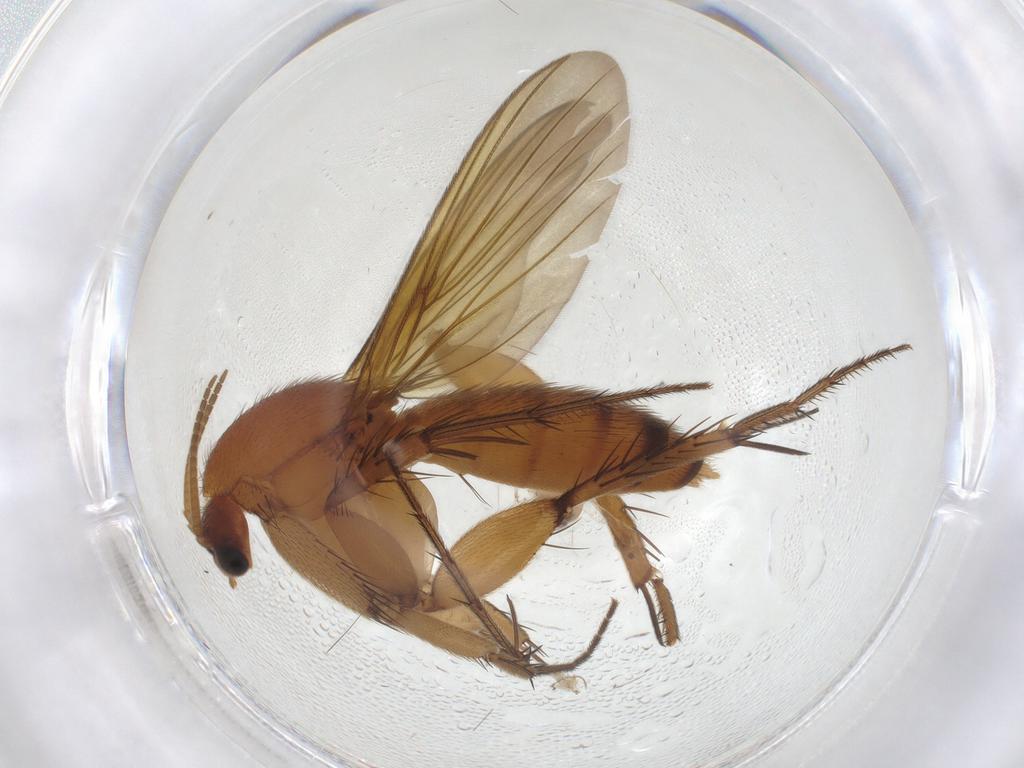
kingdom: Animalia
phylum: Arthropoda
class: Insecta
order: Diptera
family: Ceratopogonidae
